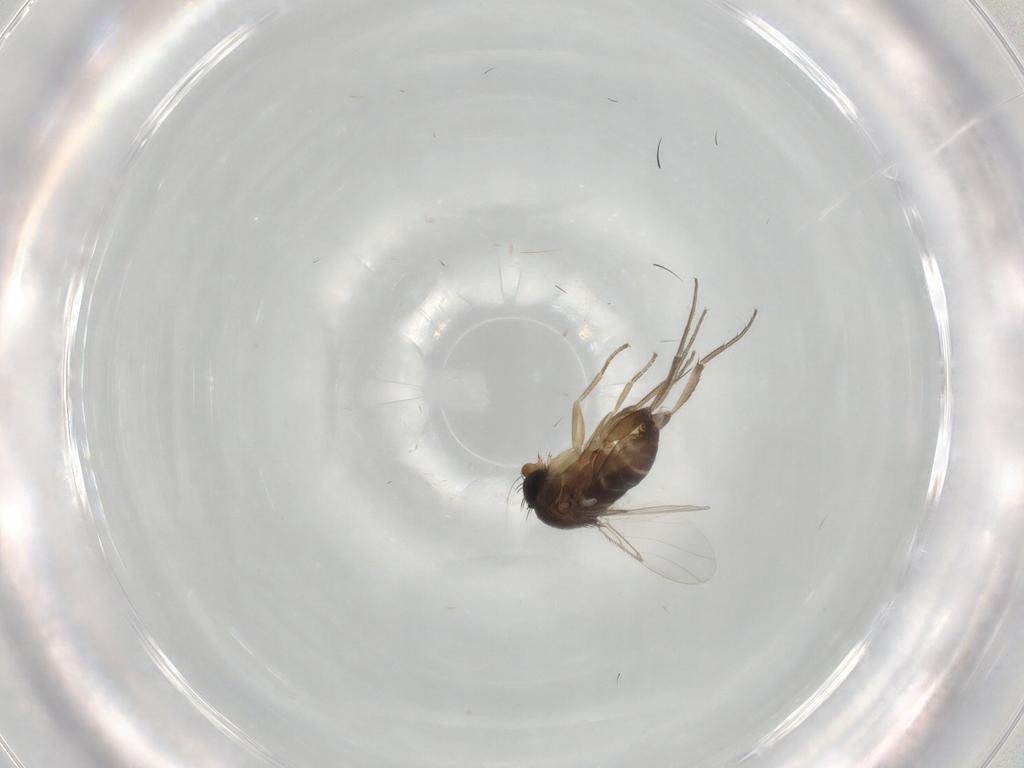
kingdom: Animalia
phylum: Arthropoda
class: Insecta
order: Diptera
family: Phoridae
